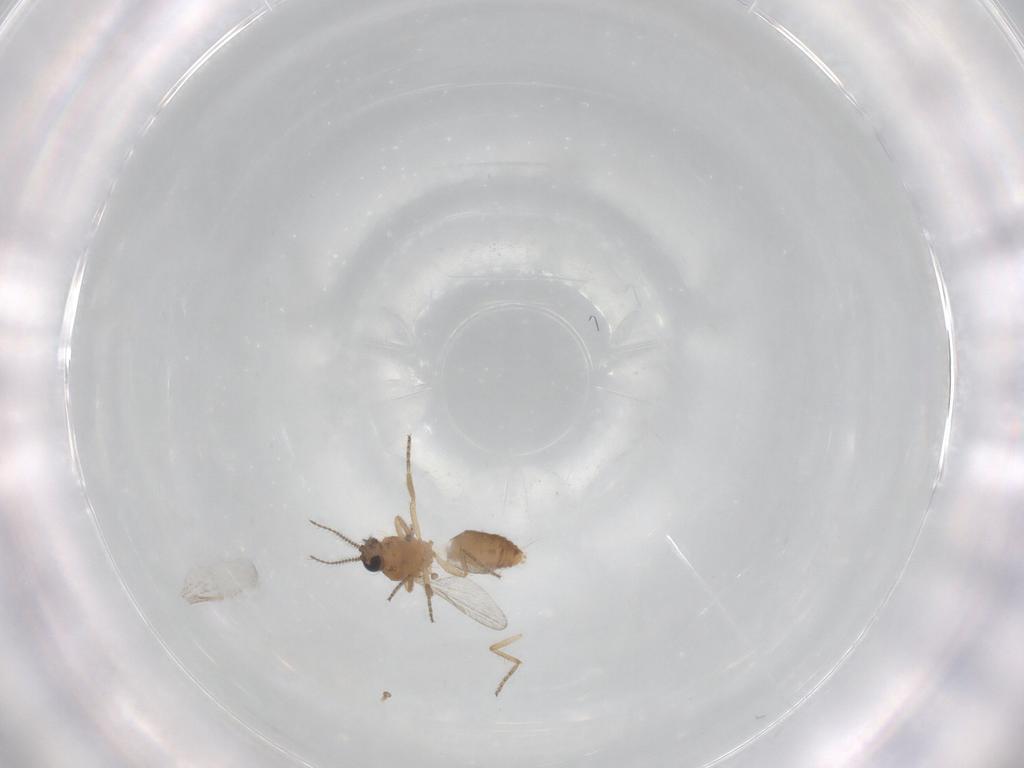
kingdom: Animalia
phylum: Arthropoda
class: Insecta
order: Diptera
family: Ceratopogonidae
